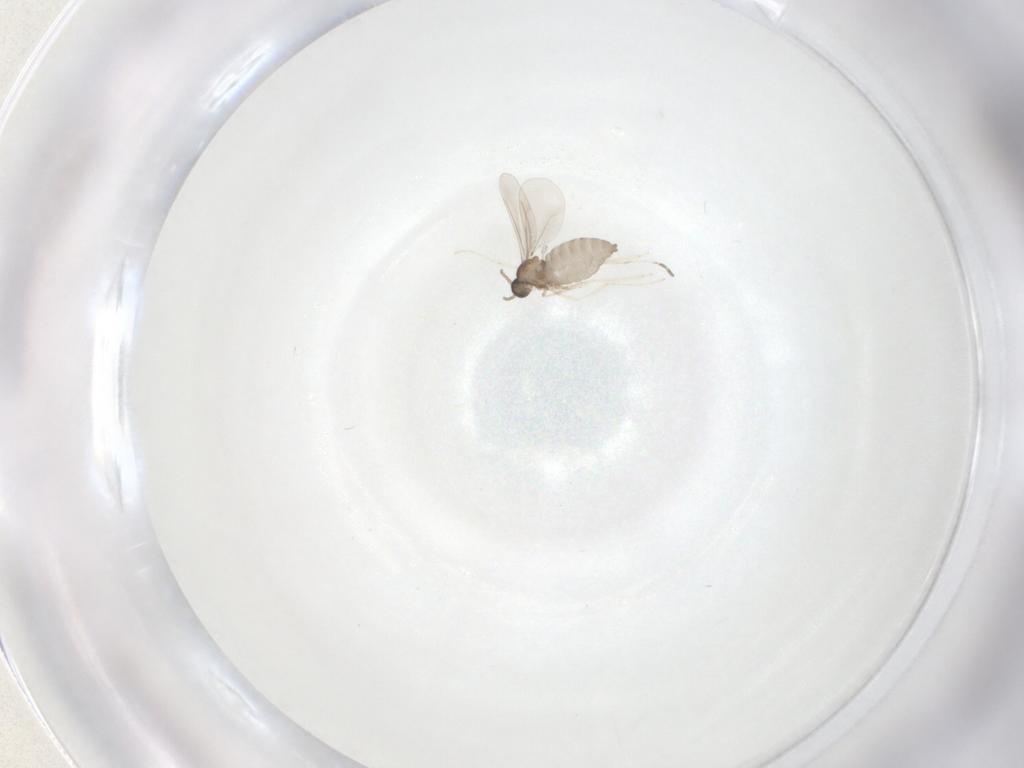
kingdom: Animalia
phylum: Arthropoda
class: Insecta
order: Diptera
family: Cecidomyiidae
